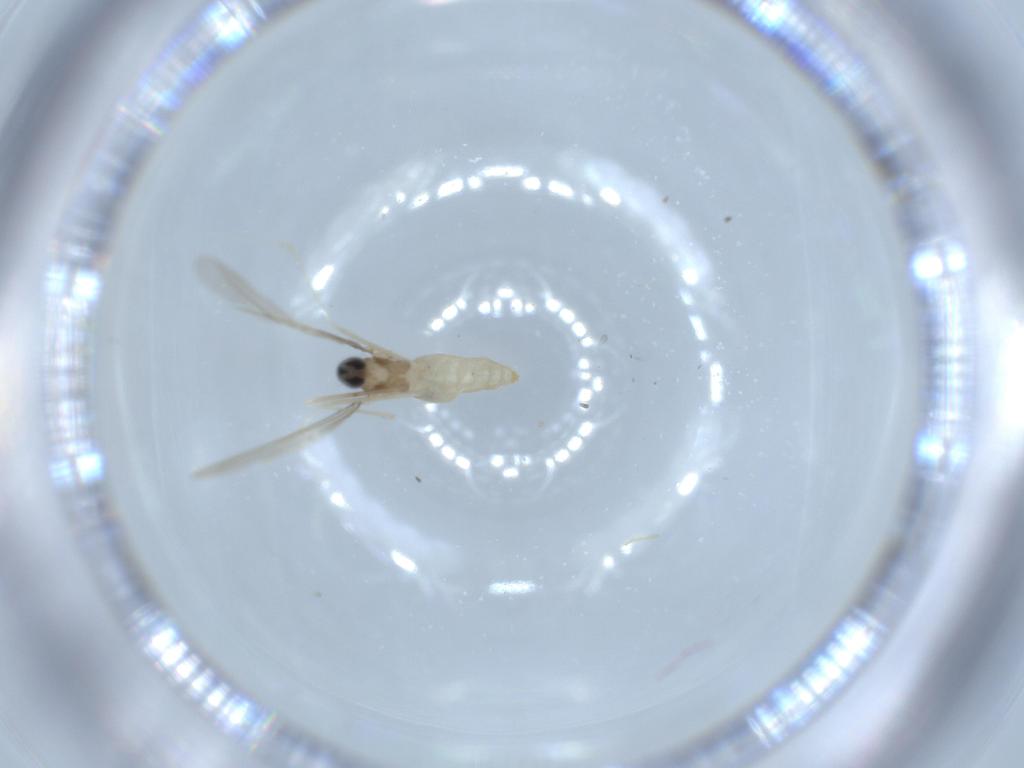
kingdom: Animalia
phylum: Arthropoda
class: Insecta
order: Diptera
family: Cecidomyiidae
